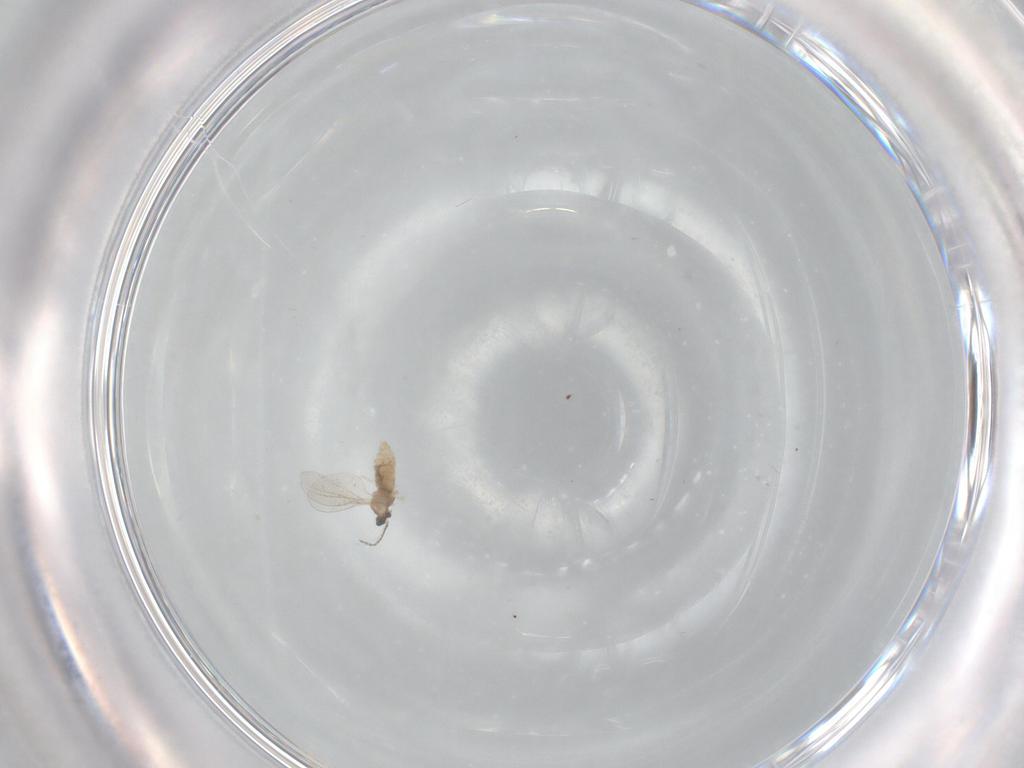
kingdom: Animalia
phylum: Arthropoda
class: Insecta
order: Diptera
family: Cecidomyiidae
